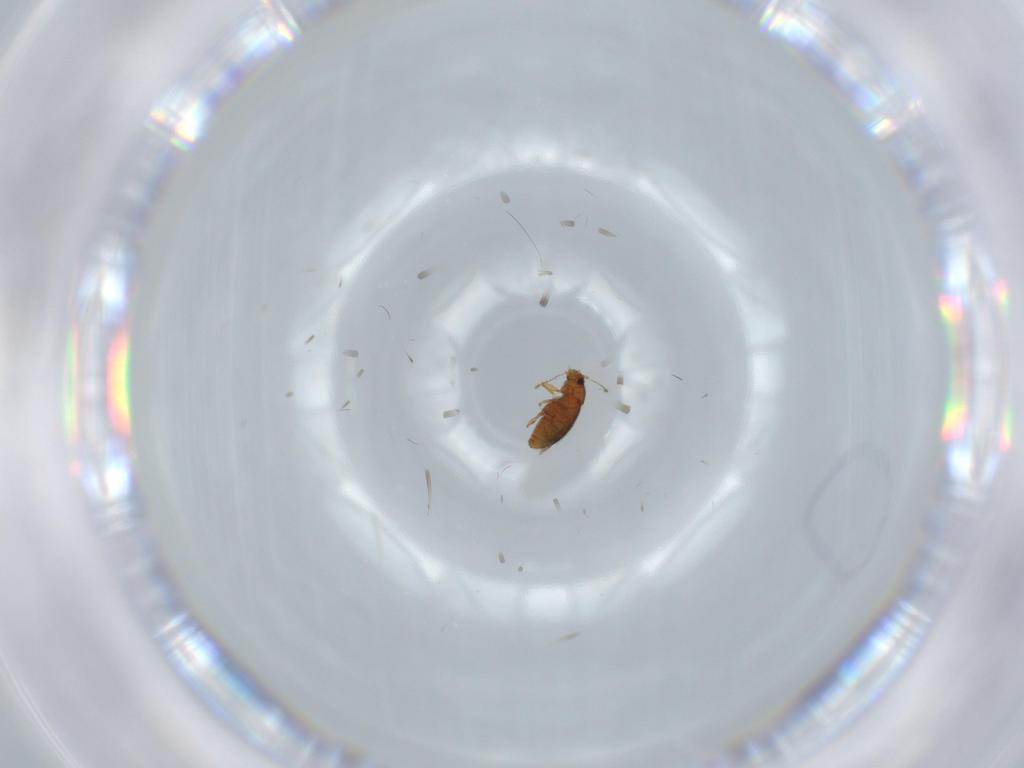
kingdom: Animalia
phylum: Arthropoda
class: Insecta
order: Coleoptera
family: Ptiliidae
